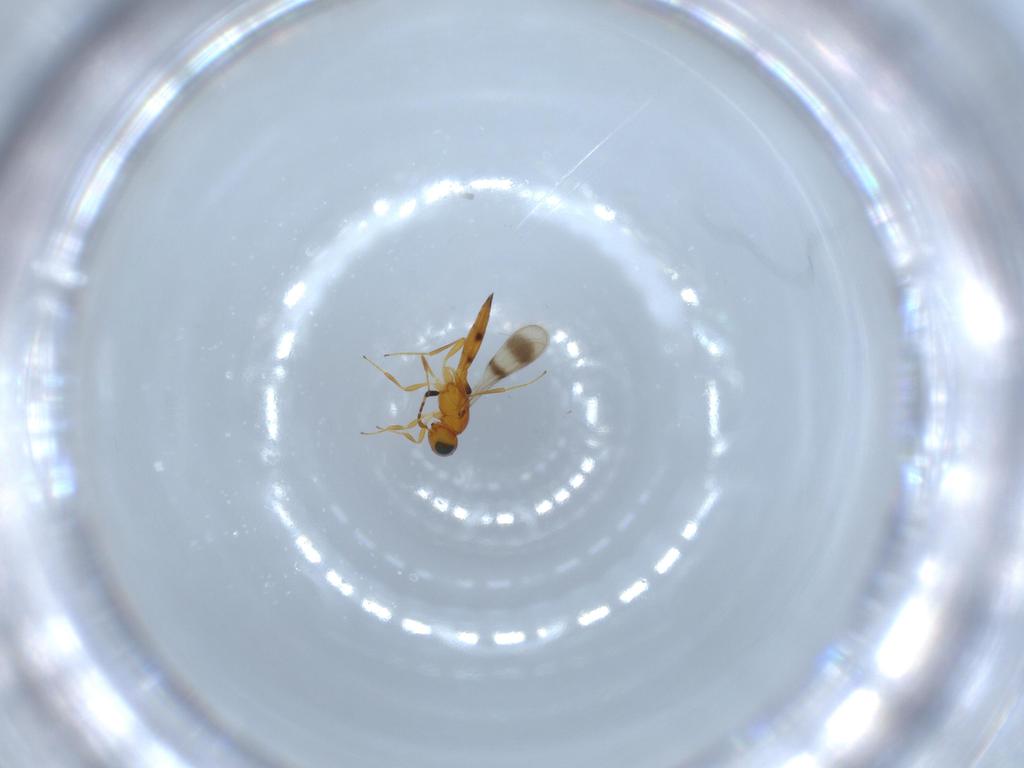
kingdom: Animalia
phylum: Arthropoda
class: Insecta
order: Hymenoptera
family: Scelionidae
